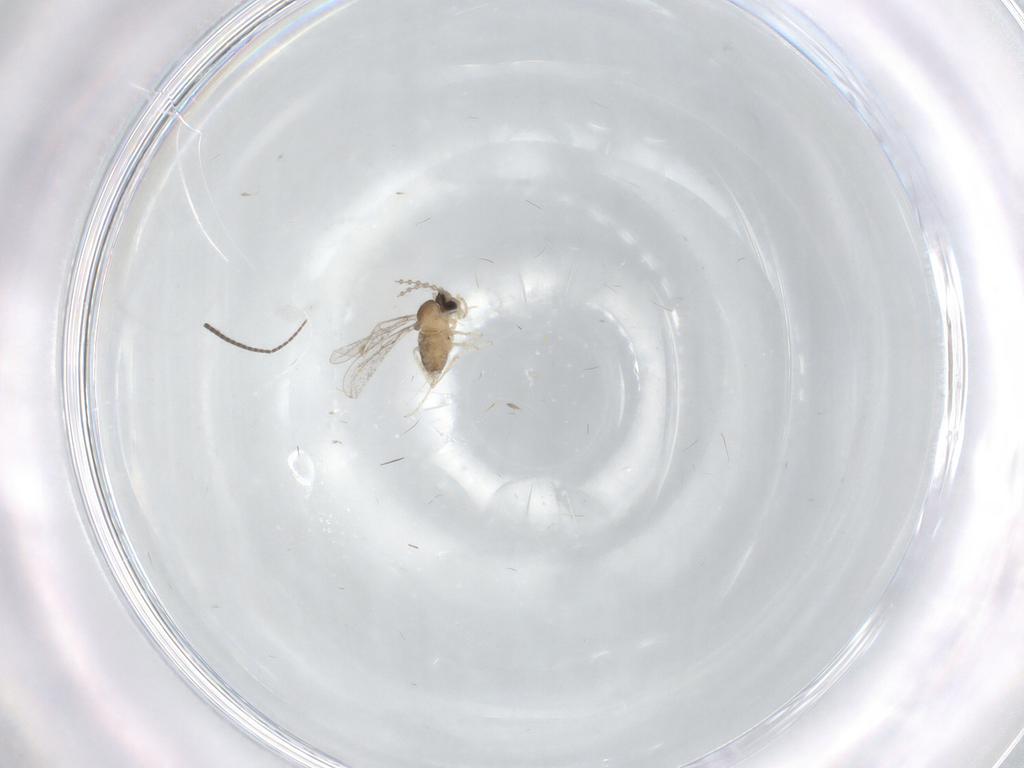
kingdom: Animalia
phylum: Arthropoda
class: Insecta
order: Diptera
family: Cecidomyiidae
